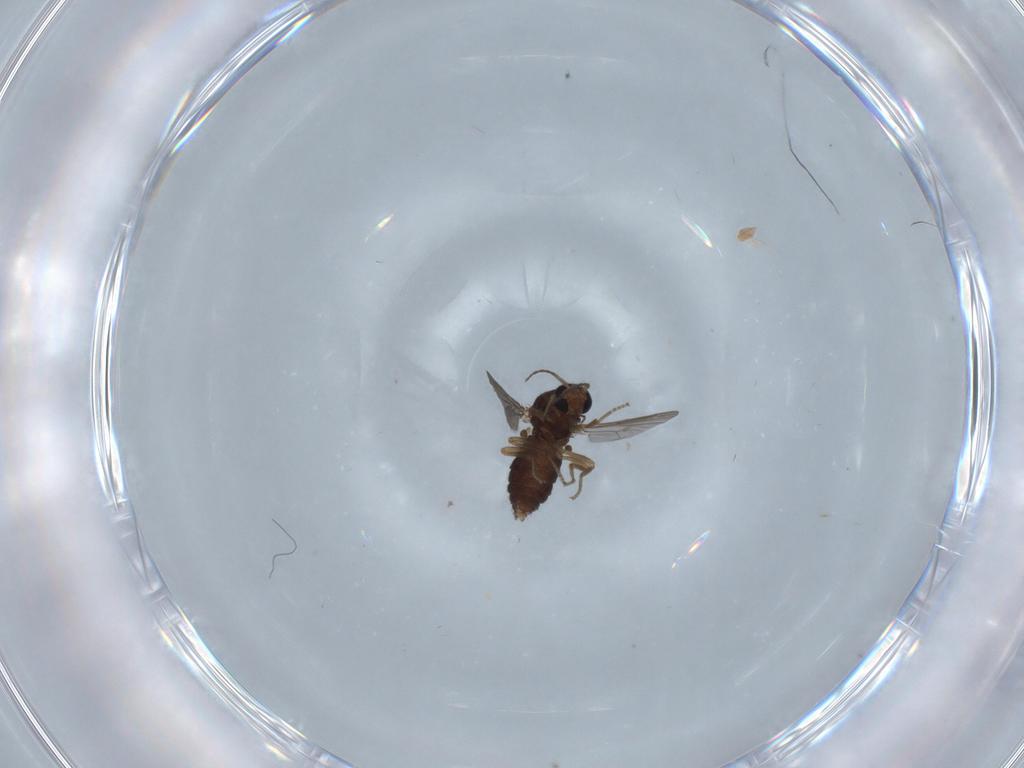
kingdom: Animalia
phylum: Arthropoda
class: Insecta
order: Diptera
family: Ceratopogonidae
